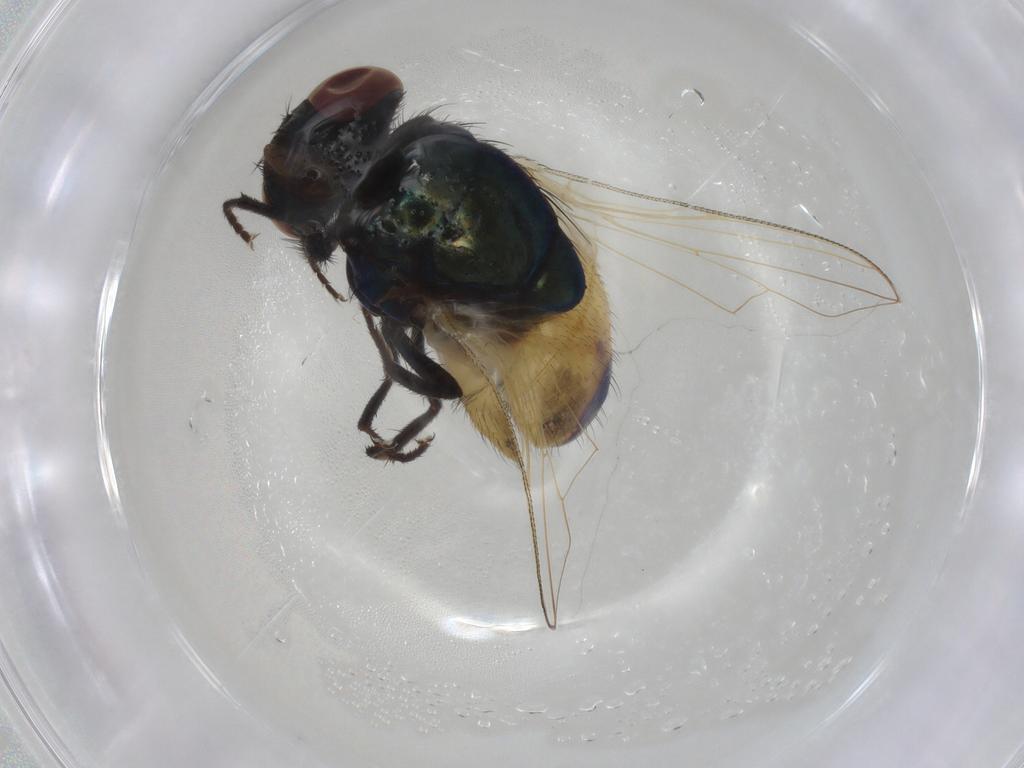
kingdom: Animalia
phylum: Arthropoda
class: Insecta
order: Diptera
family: Muscidae
